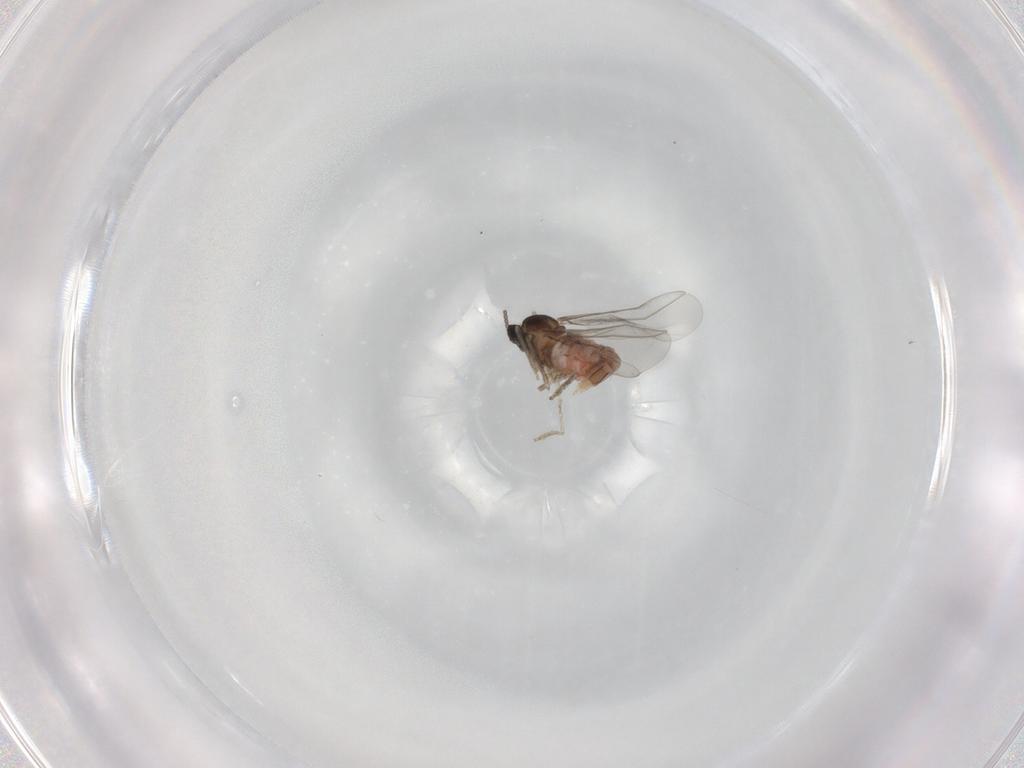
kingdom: Animalia
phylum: Arthropoda
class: Insecta
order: Diptera
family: Cecidomyiidae
